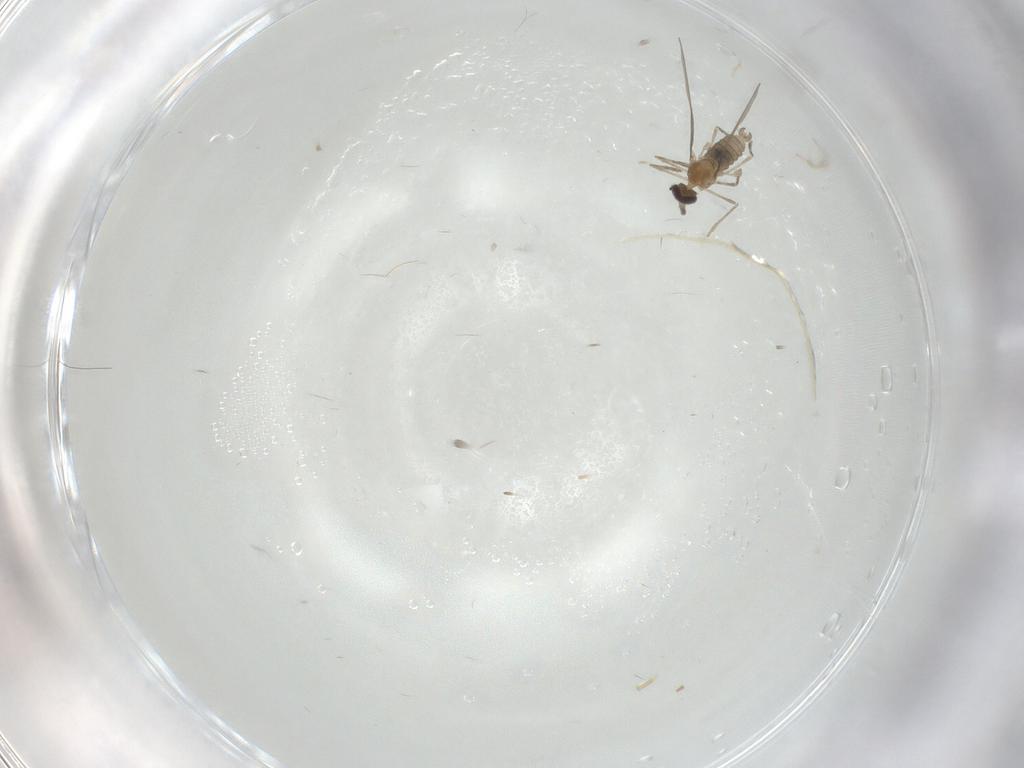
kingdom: Animalia
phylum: Arthropoda
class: Insecta
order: Diptera
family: Cecidomyiidae
